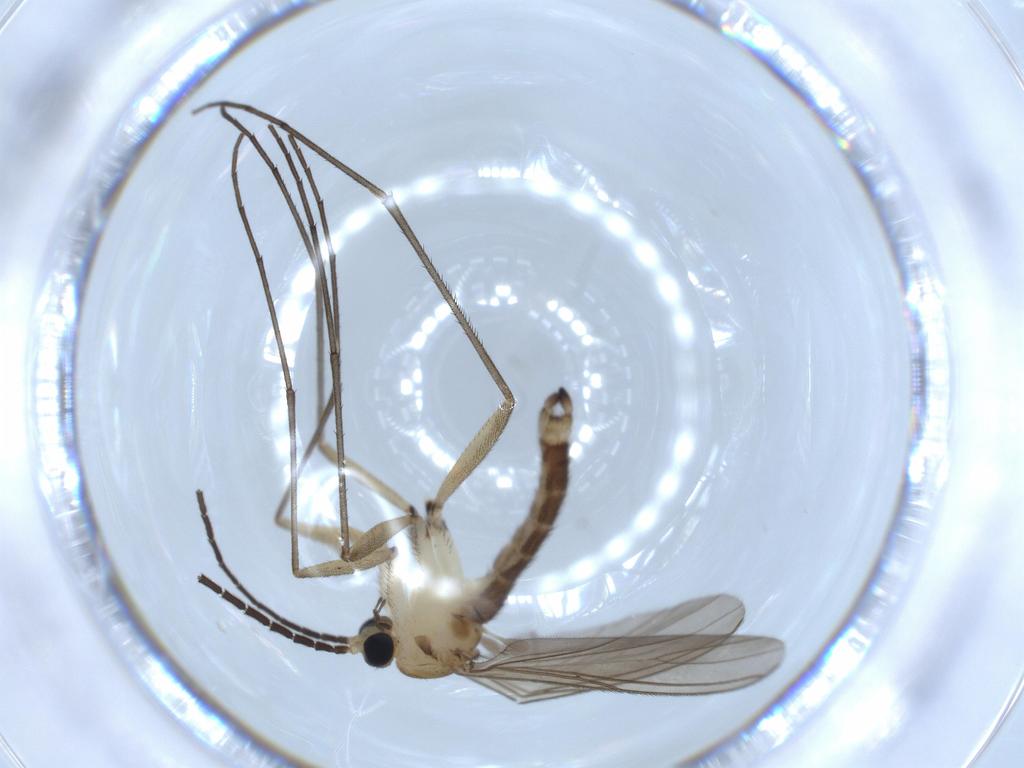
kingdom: Animalia
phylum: Arthropoda
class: Insecta
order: Diptera
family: Sciaridae
